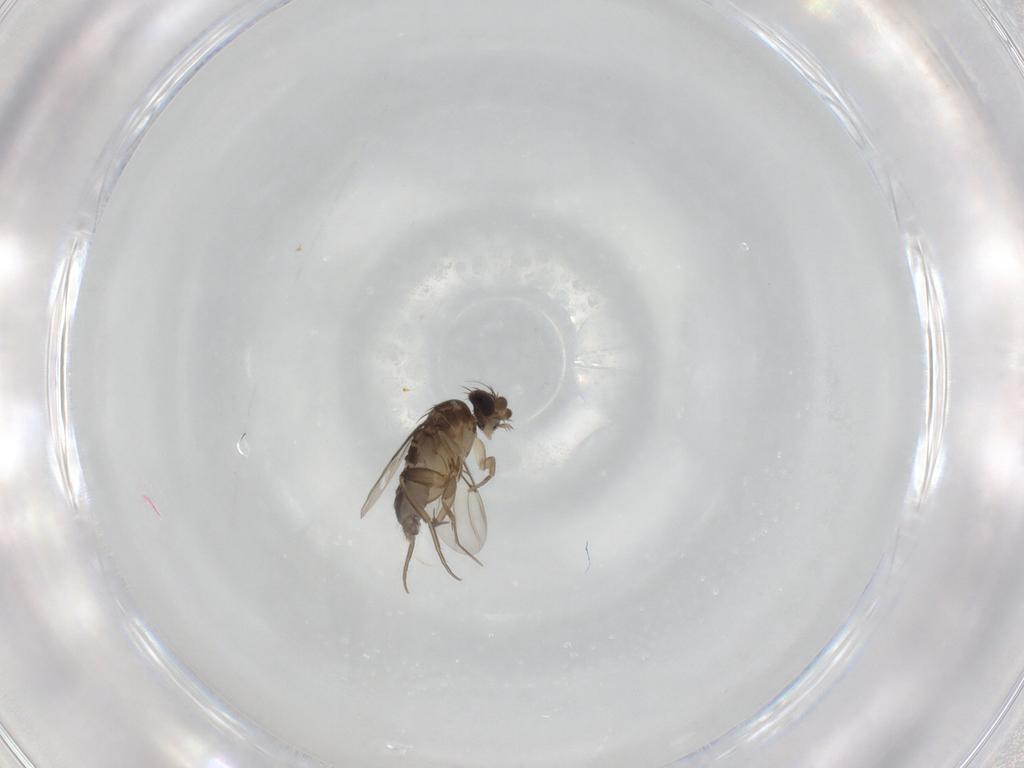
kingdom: Animalia
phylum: Arthropoda
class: Insecta
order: Diptera
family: Phoridae
